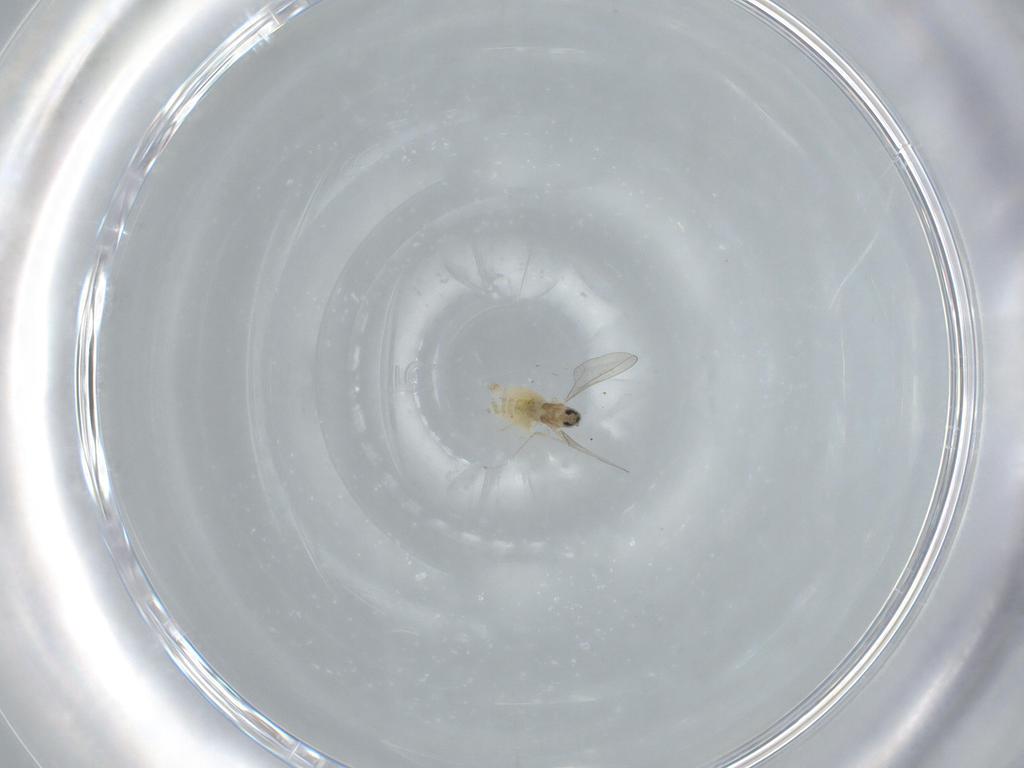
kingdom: Animalia
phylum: Arthropoda
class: Insecta
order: Diptera
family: Cecidomyiidae
